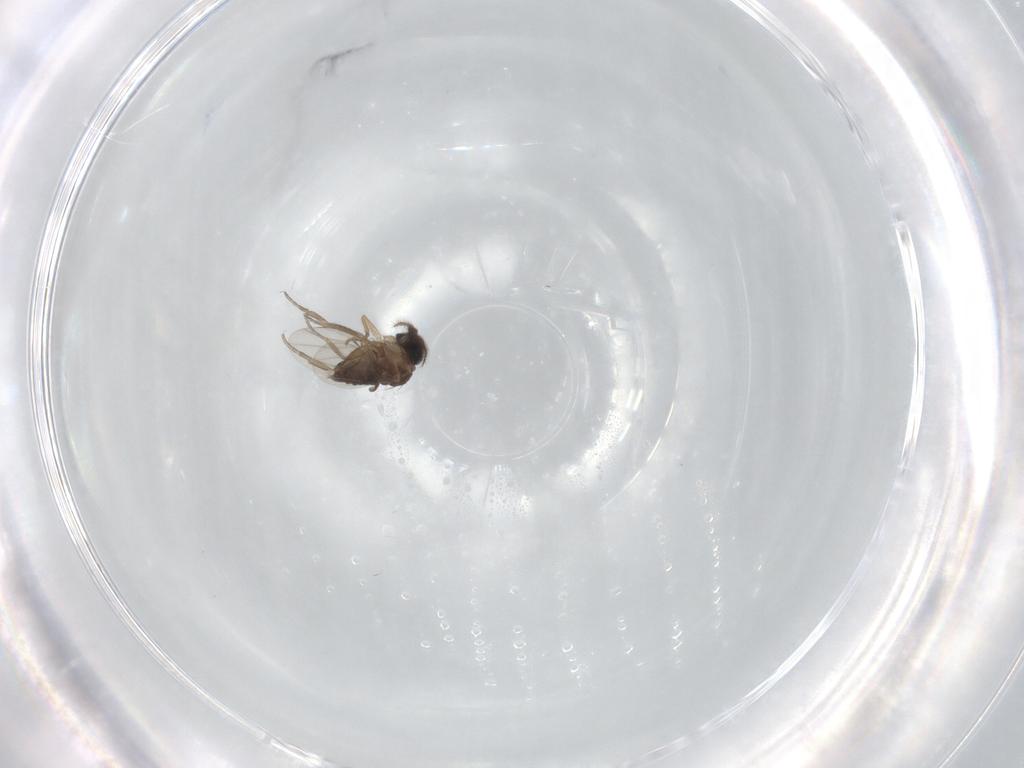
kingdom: Animalia
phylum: Arthropoda
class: Insecta
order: Diptera
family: Phoridae
